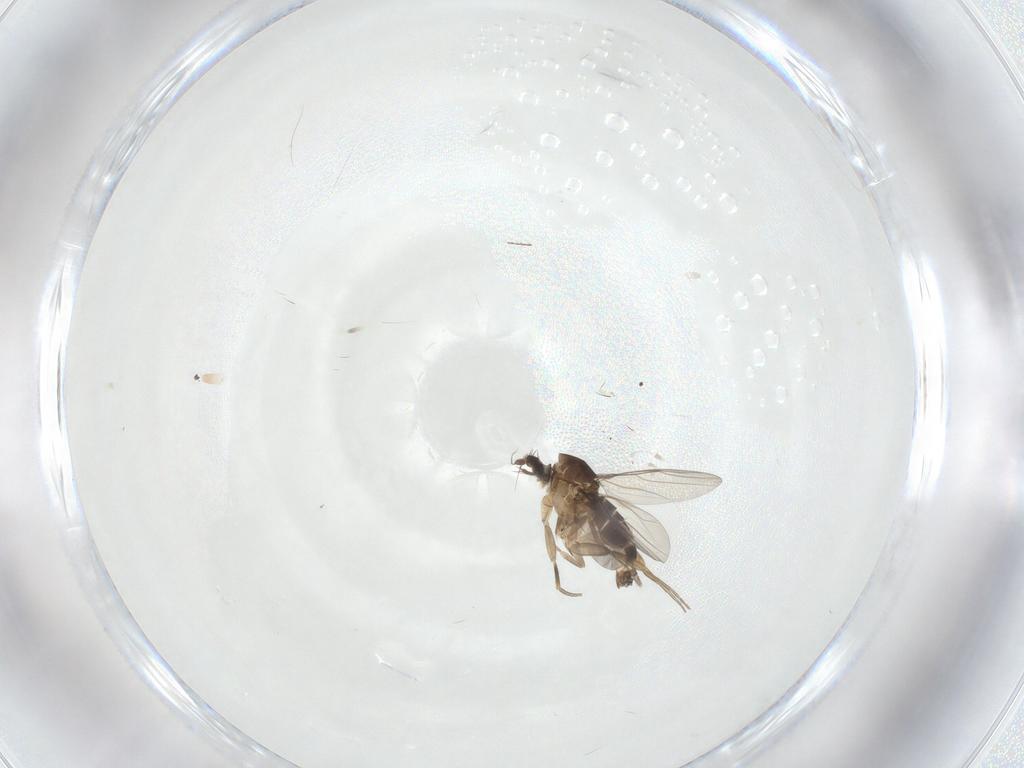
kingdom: Animalia
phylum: Arthropoda
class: Insecta
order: Diptera
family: Phoridae
